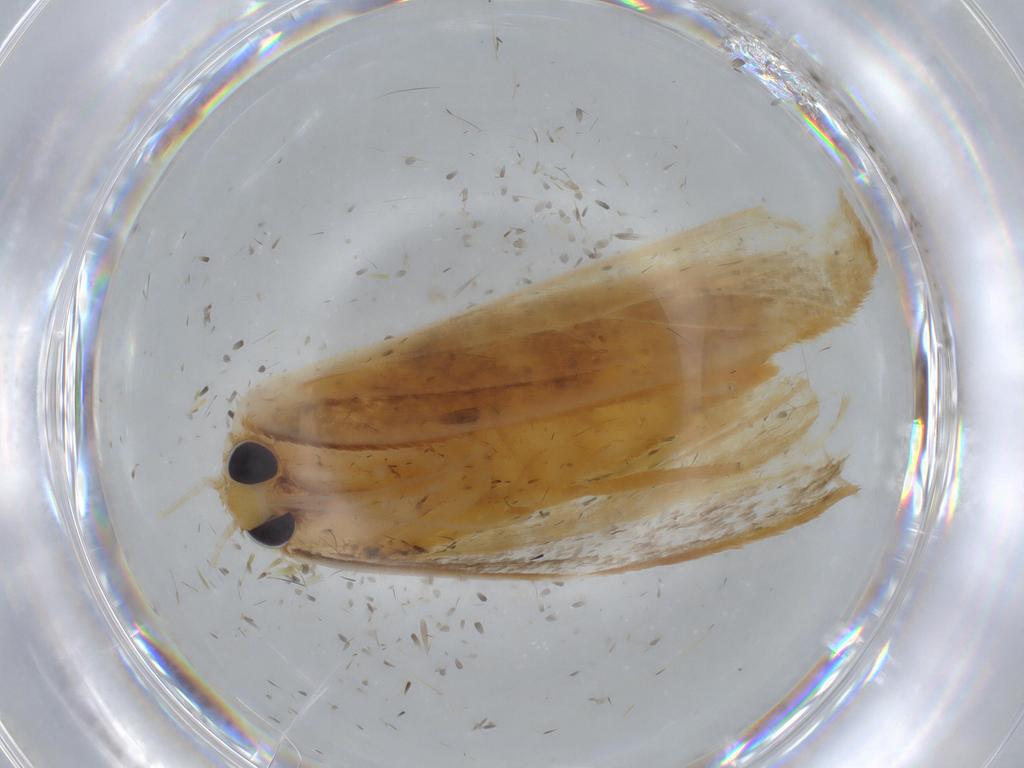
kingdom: Animalia
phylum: Arthropoda
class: Insecta
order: Lepidoptera
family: Erebidae
